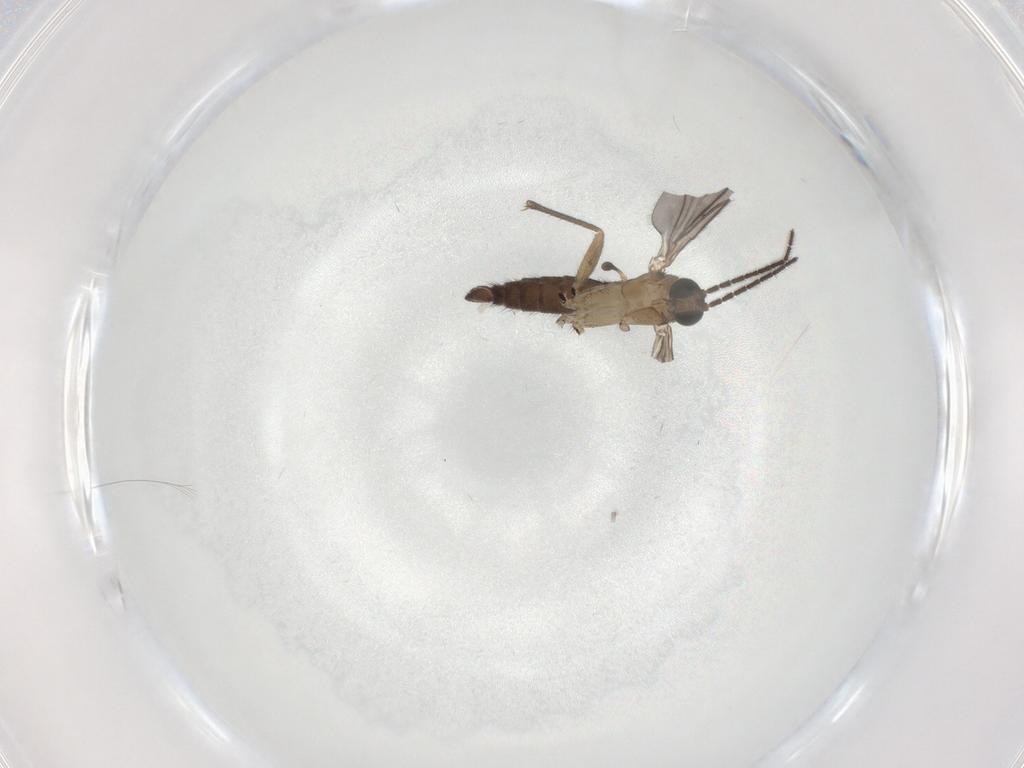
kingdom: Animalia
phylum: Arthropoda
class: Insecta
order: Diptera
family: Sciaridae
